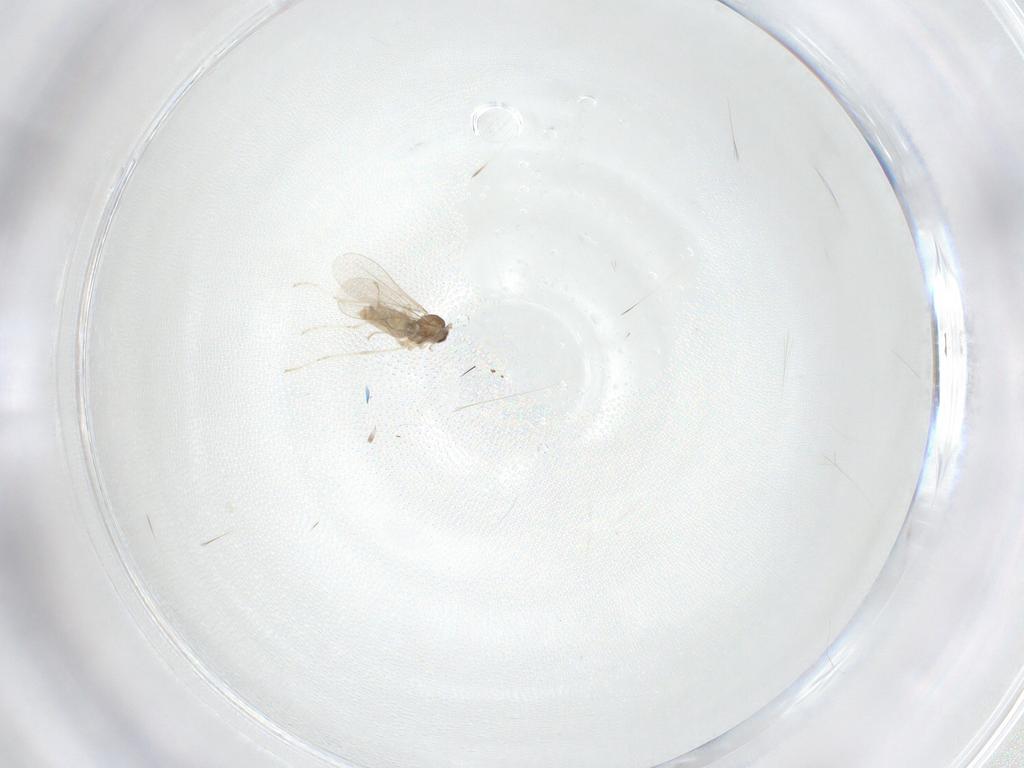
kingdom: Animalia
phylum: Arthropoda
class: Insecta
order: Diptera
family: Cecidomyiidae
